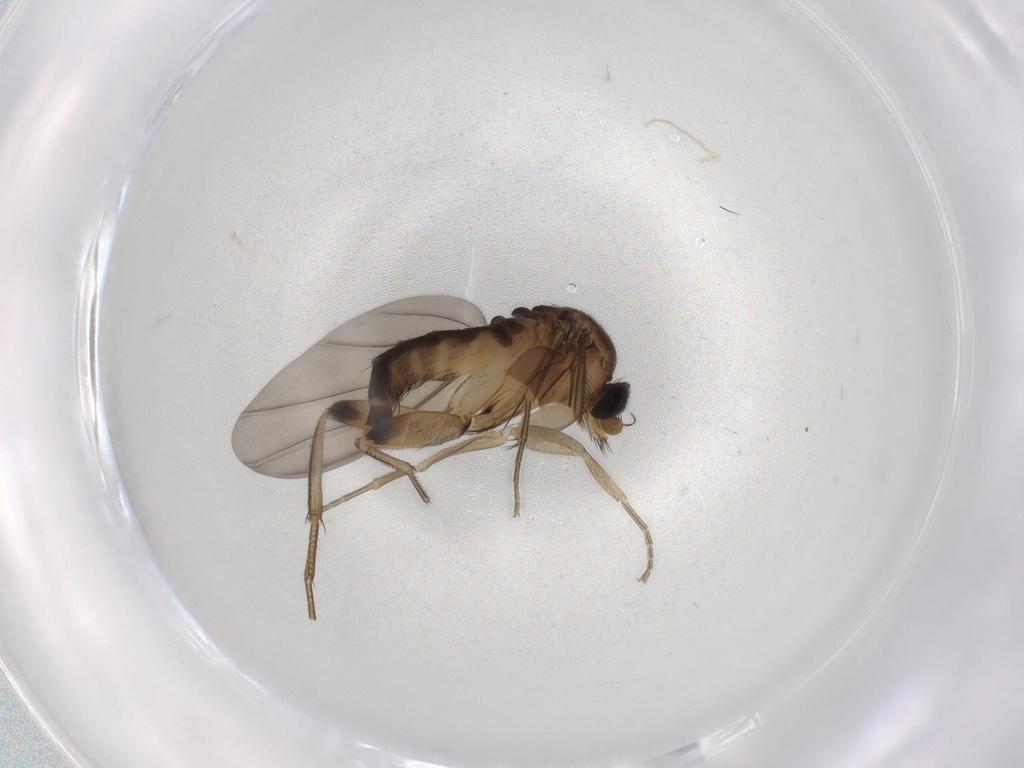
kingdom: Animalia
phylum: Arthropoda
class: Insecta
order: Diptera
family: Phoridae
